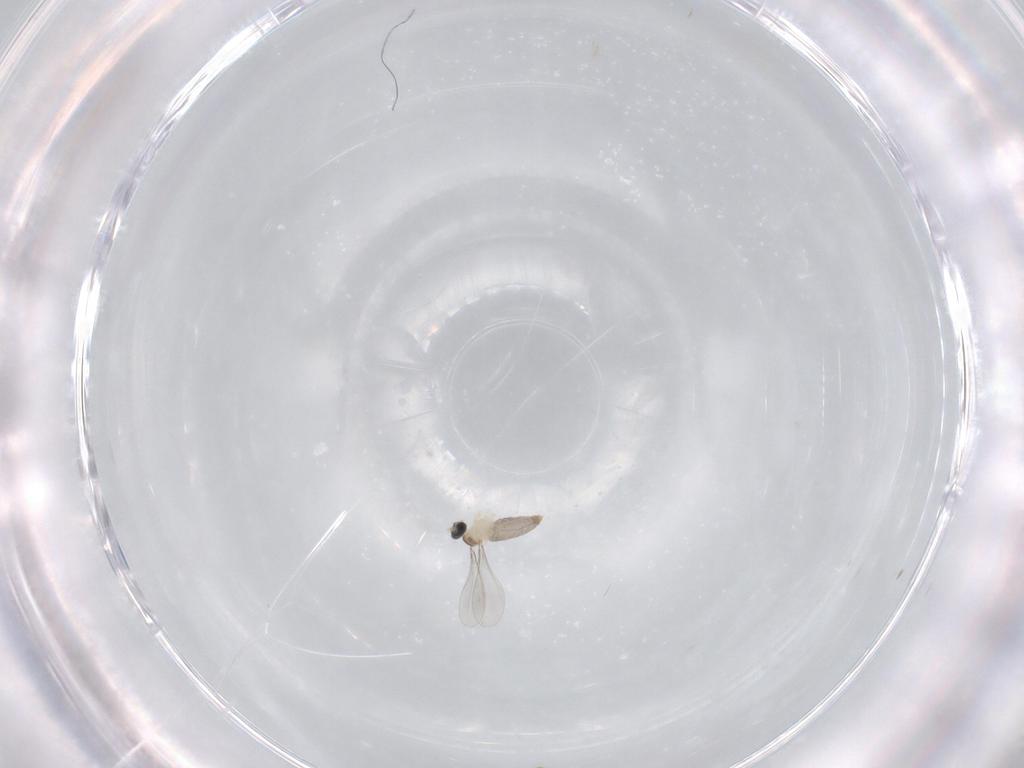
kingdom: Animalia
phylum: Arthropoda
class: Insecta
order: Diptera
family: Cecidomyiidae
